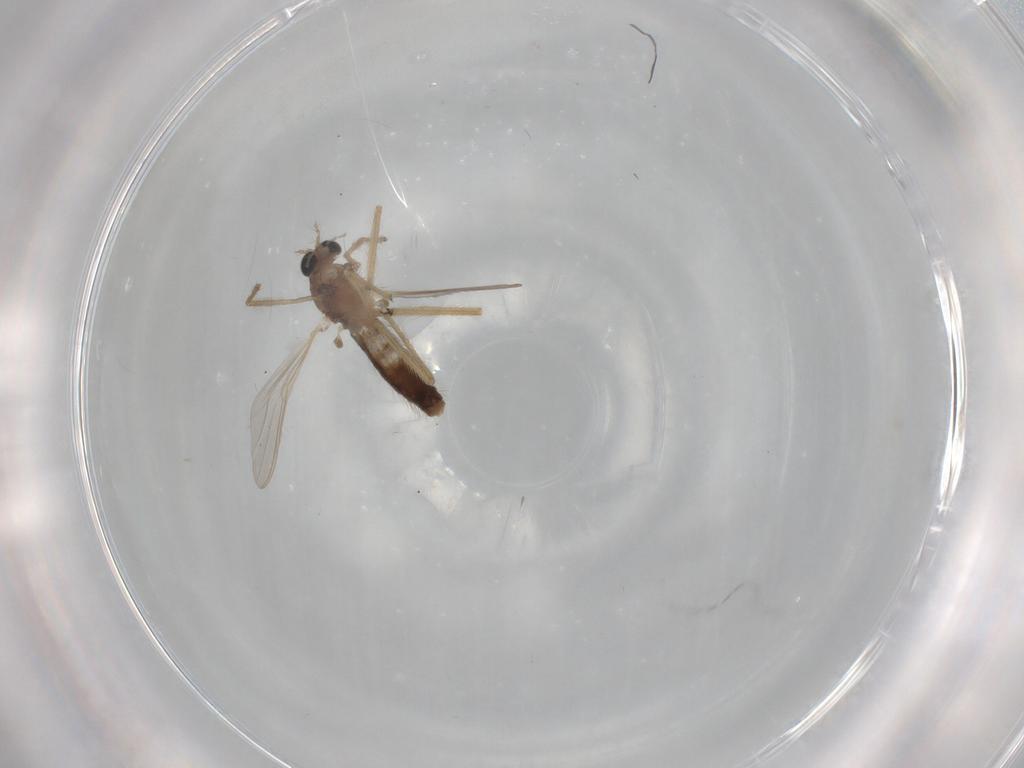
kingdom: Animalia
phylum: Arthropoda
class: Insecta
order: Diptera
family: Chironomidae
